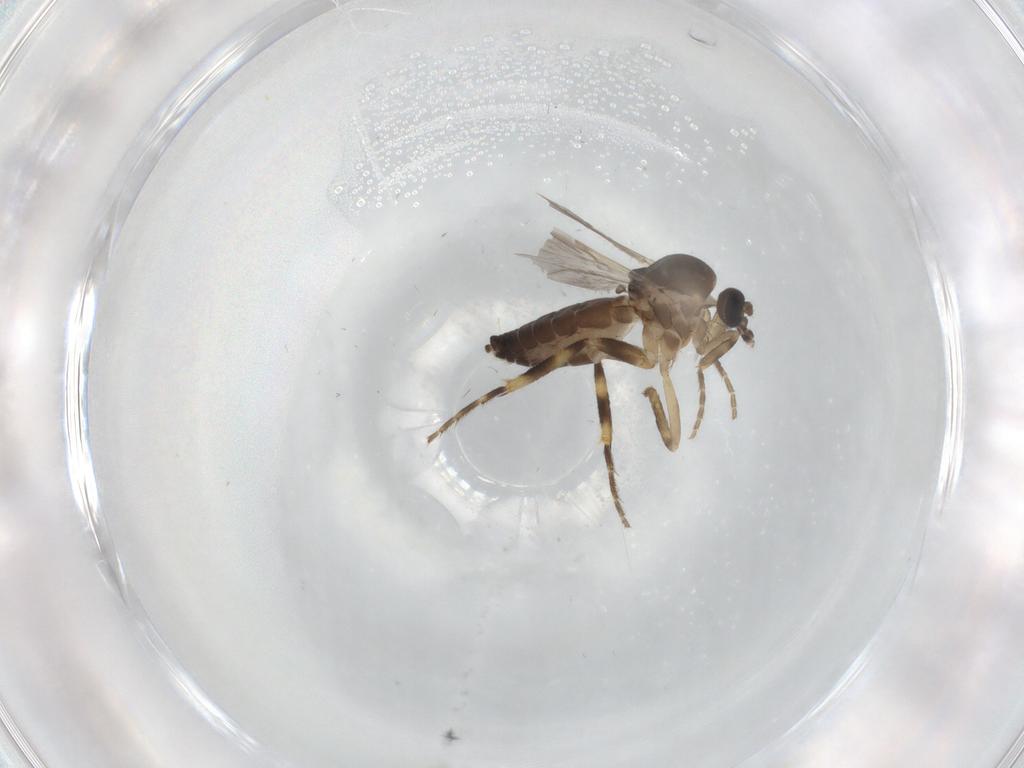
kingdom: Animalia
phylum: Arthropoda
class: Insecta
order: Diptera
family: Ceratopogonidae
